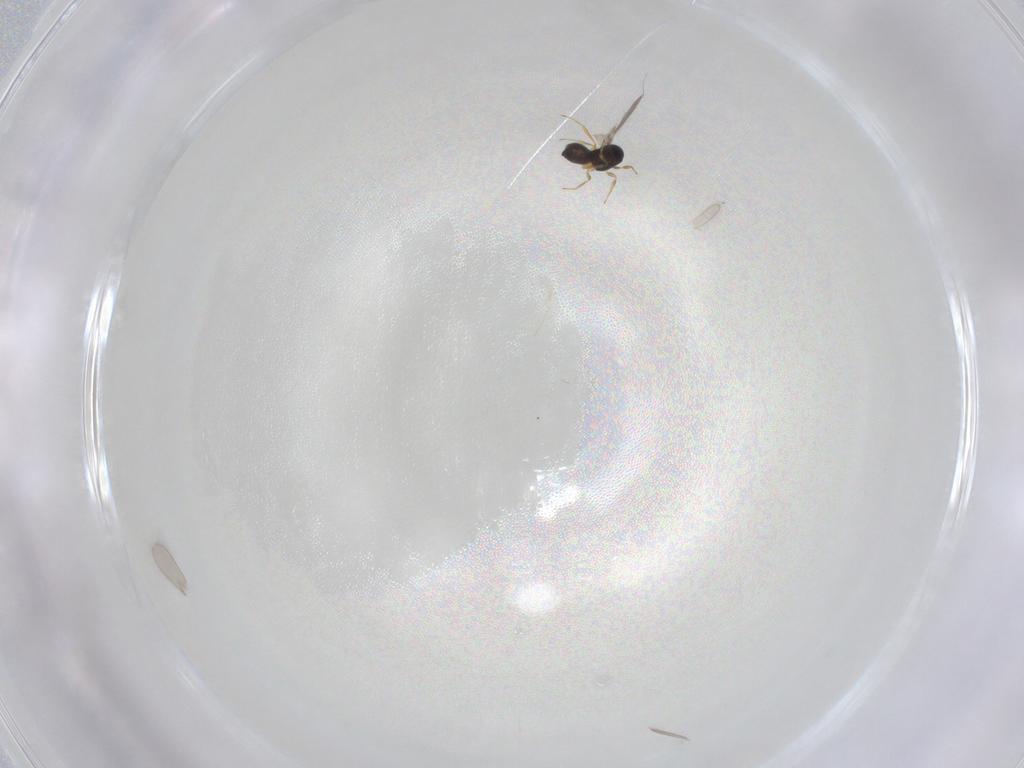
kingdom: Animalia
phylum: Arthropoda
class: Insecta
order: Hymenoptera
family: Scelionidae
